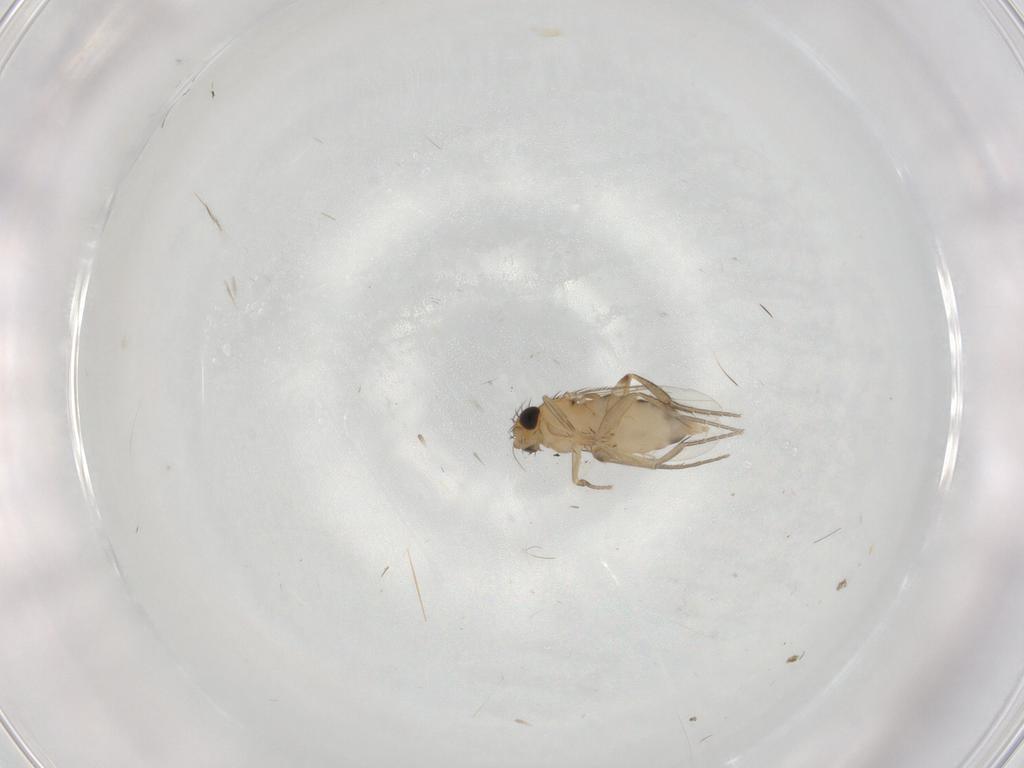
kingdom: Animalia
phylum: Arthropoda
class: Insecta
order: Diptera
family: Phoridae
